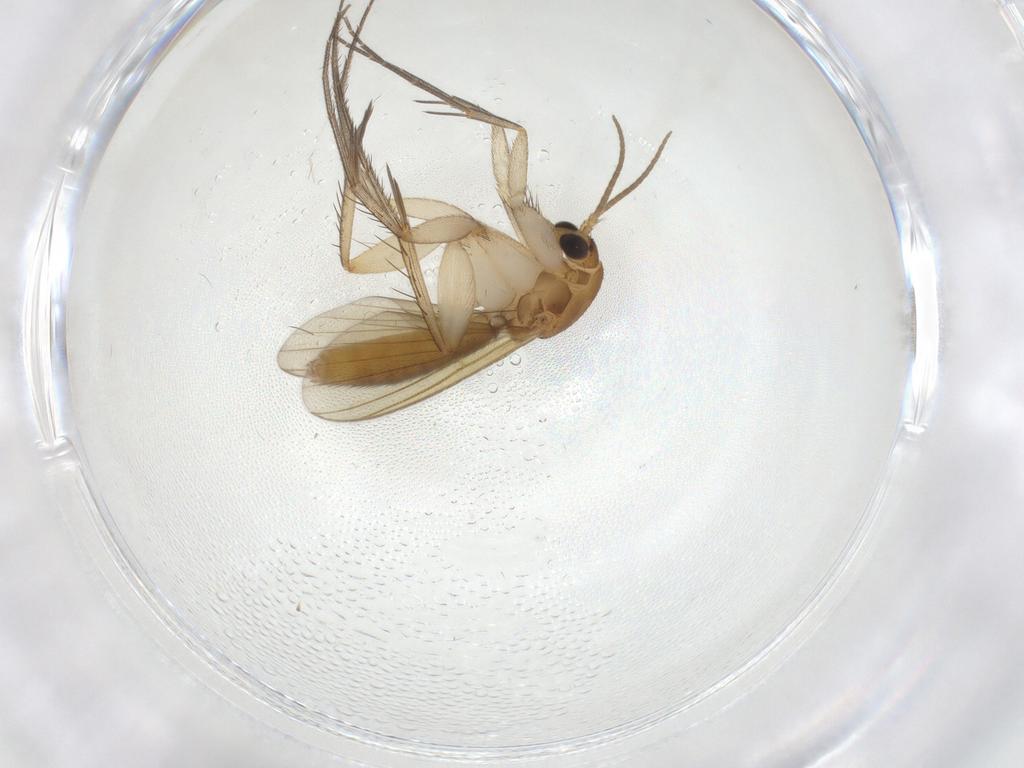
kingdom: Animalia
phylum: Arthropoda
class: Insecta
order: Diptera
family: Mycetophilidae
